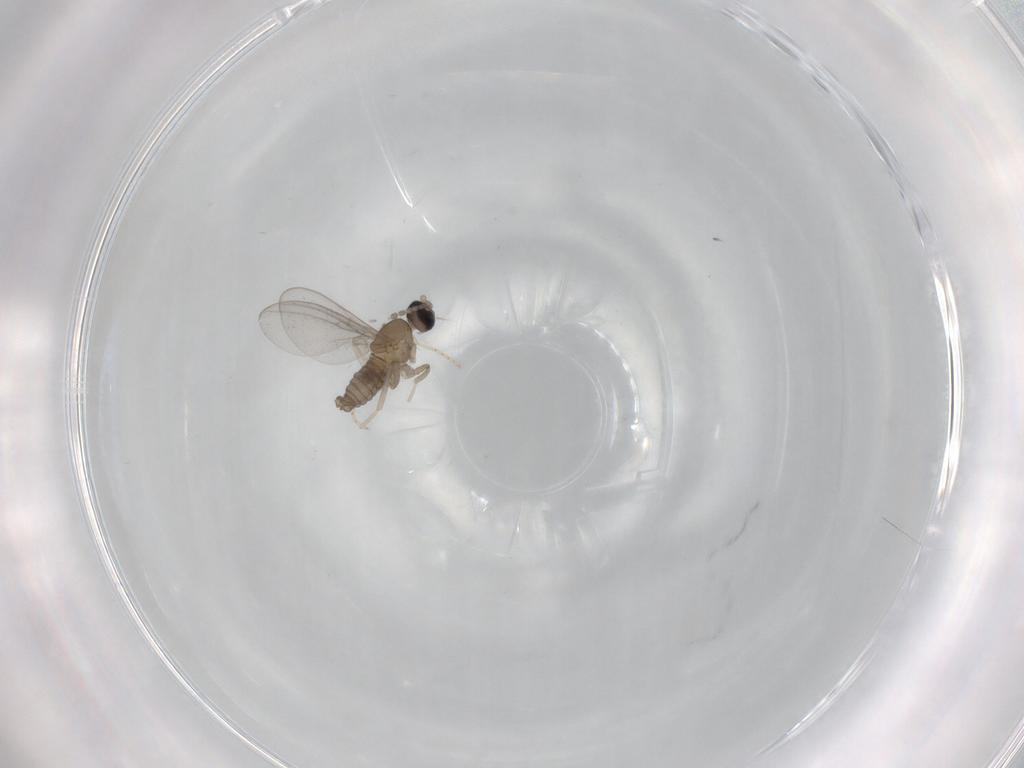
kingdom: Animalia
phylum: Arthropoda
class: Insecta
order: Diptera
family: Cecidomyiidae
